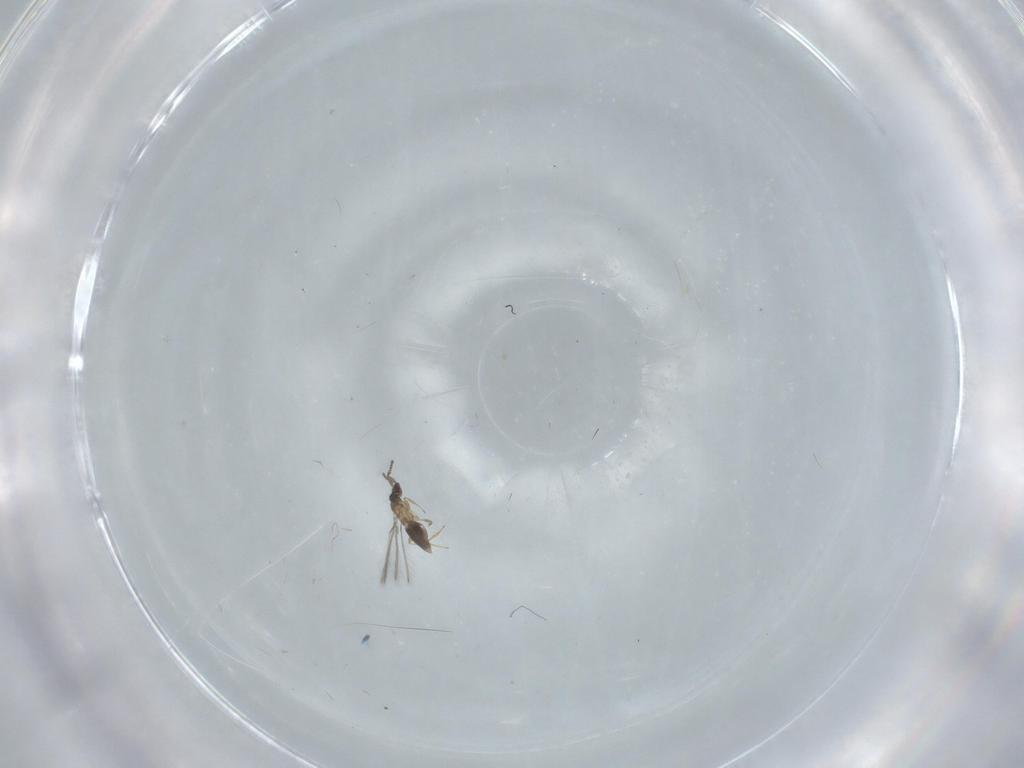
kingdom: Animalia
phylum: Arthropoda
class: Insecta
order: Hymenoptera
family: Mymaridae
